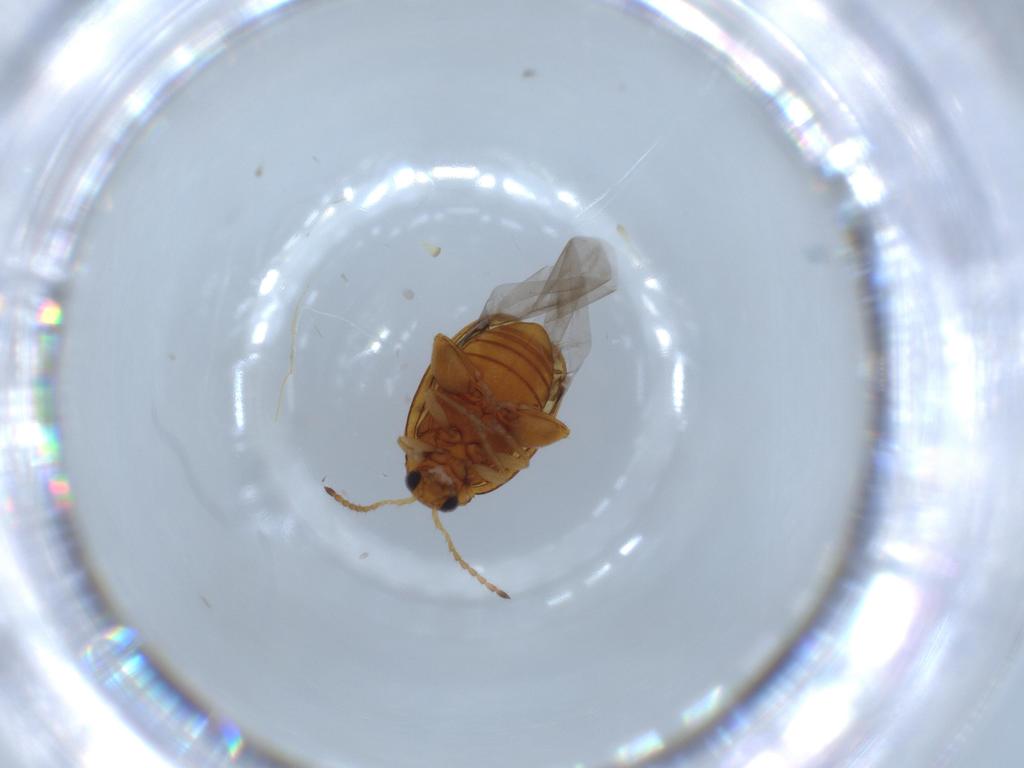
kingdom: Animalia
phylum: Arthropoda
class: Insecta
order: Coleoptera
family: Chrysomelidae
